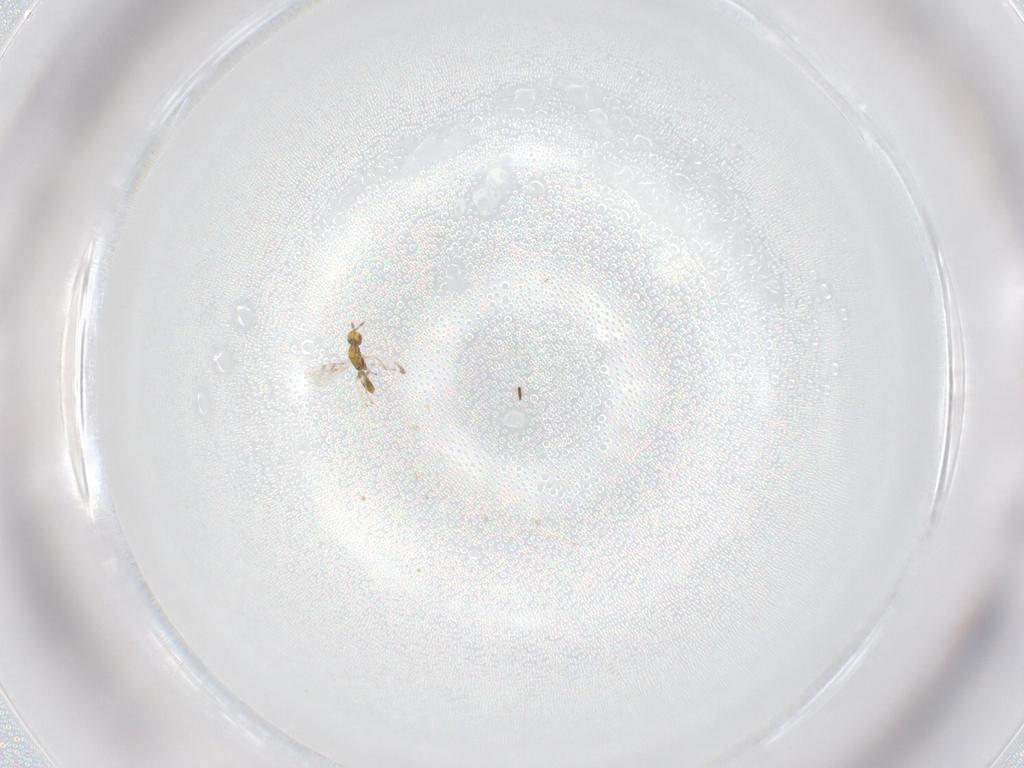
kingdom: Animalia
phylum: Arthropoda
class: Insecta
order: Hymenoptera
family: Eulophidae
